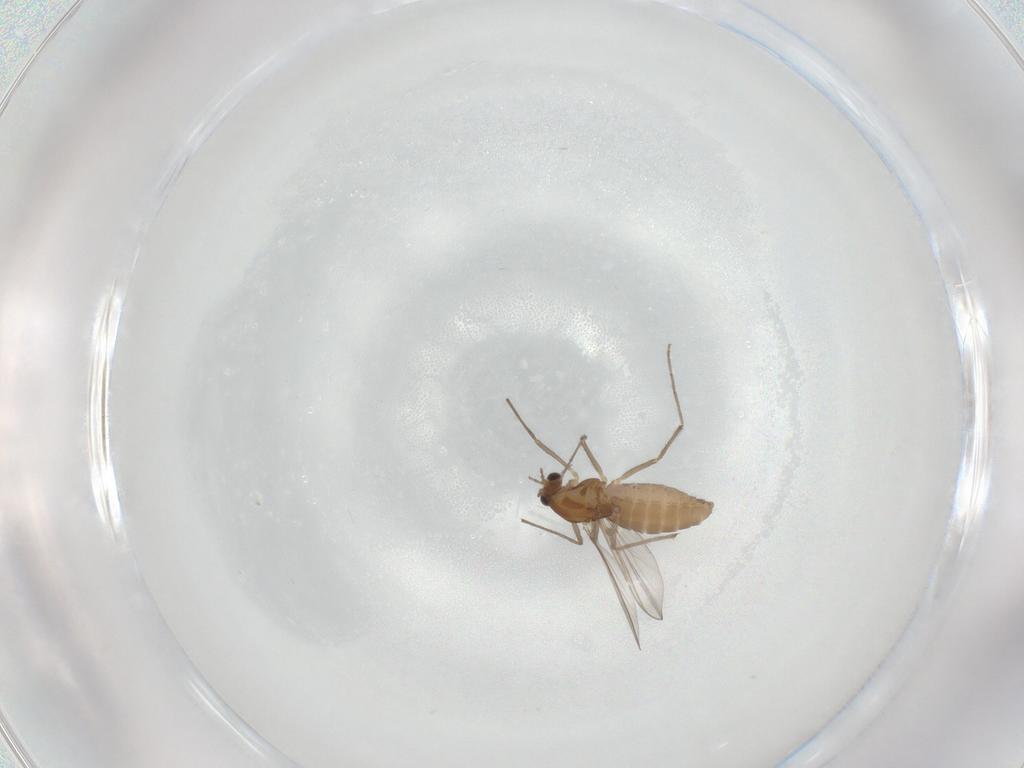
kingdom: Animalia
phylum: Arthropoda
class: Insecta
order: Diptera
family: Chironomidae
